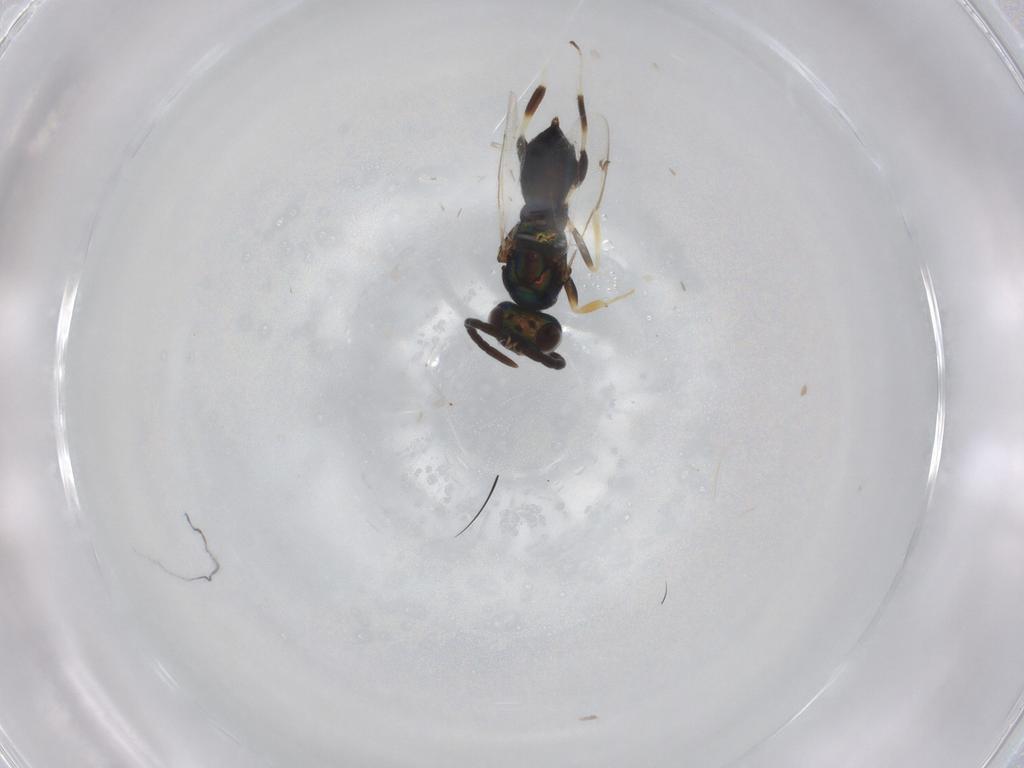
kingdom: Animalia
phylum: Arthropoda
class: Insecta
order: Hymenoptera
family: Eupelmidae
